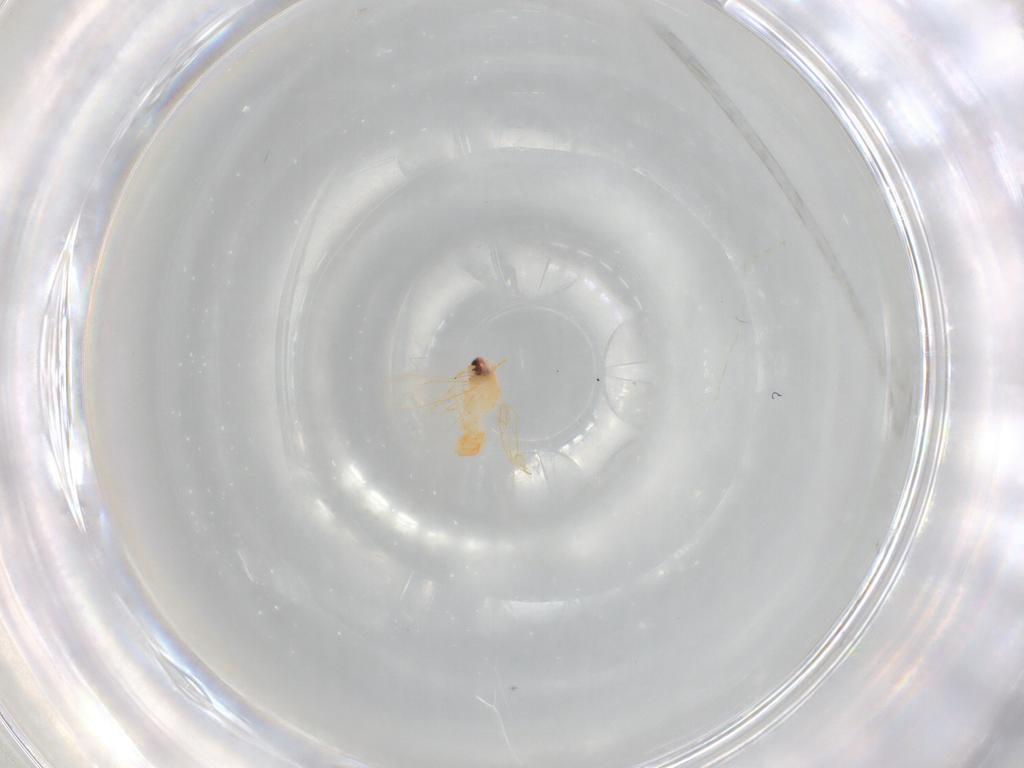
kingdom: Animalia
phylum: Arthropoda
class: Insecta
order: Hemiptera
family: Aleyrodidae
